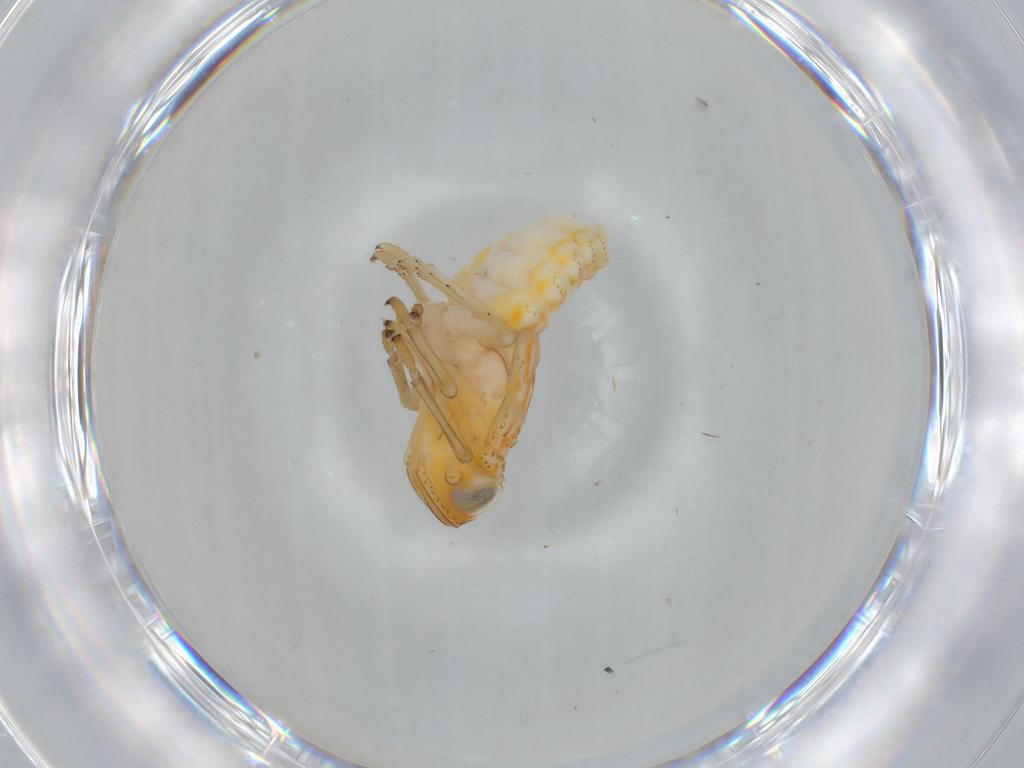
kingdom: Animalia
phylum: Arthropoda
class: Insecta
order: Hemiptera
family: Issidae
